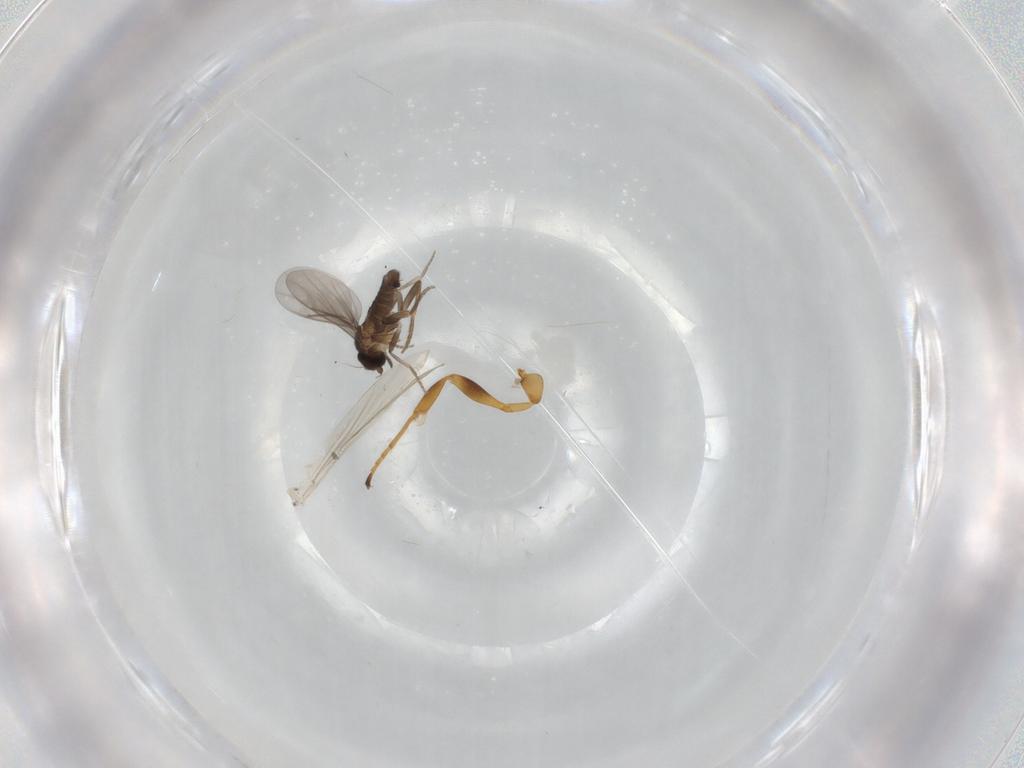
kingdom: Animalia
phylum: Arthropoda
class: Insecta
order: Diptera
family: Chironomidae
